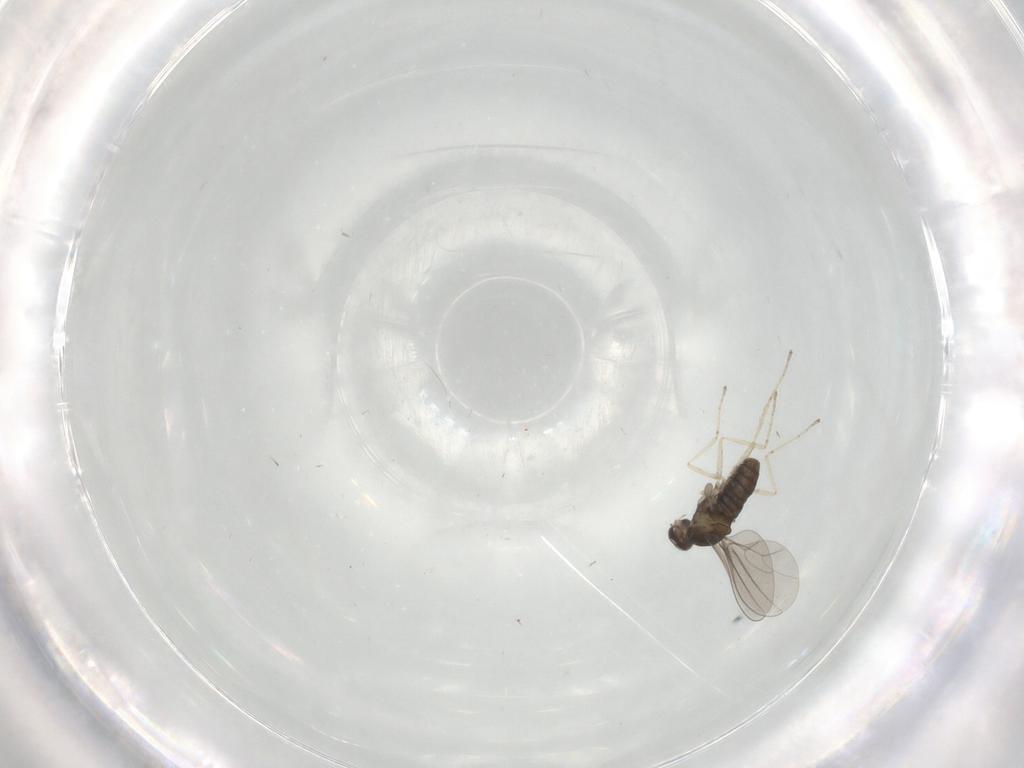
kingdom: Animalia
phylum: Arthropoda
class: Insecta
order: Diptera
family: Cecidomyiidae
